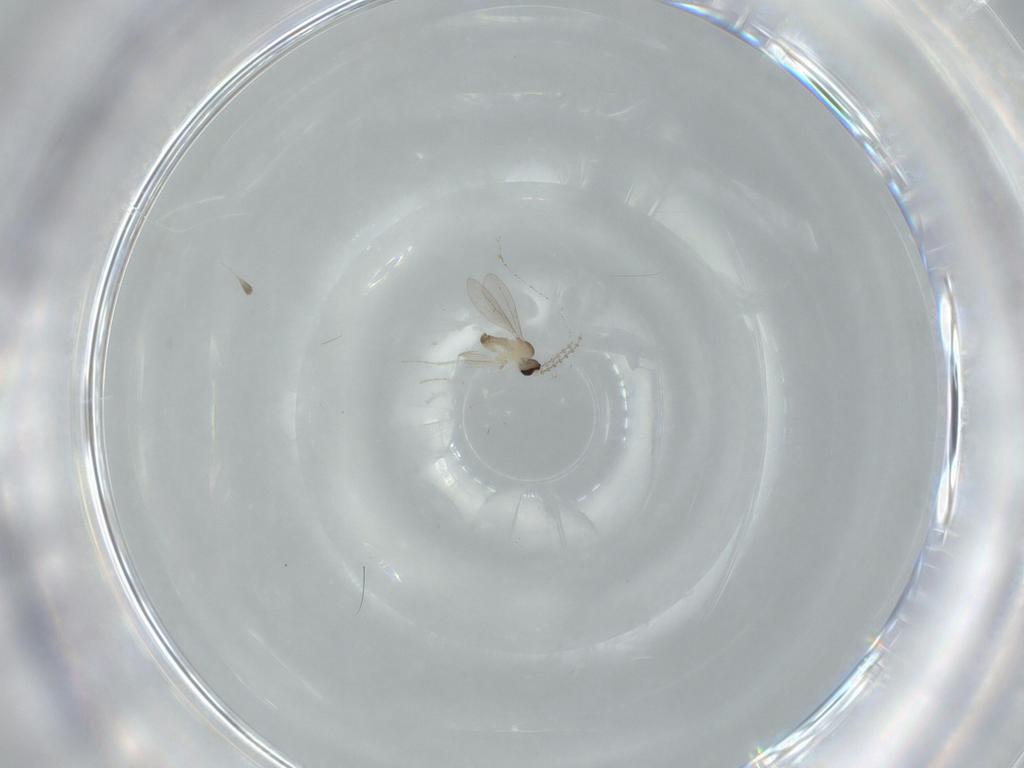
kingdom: Animalia
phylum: Arthropoda
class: Insecta
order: Diptera
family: Cecidomyiidae
